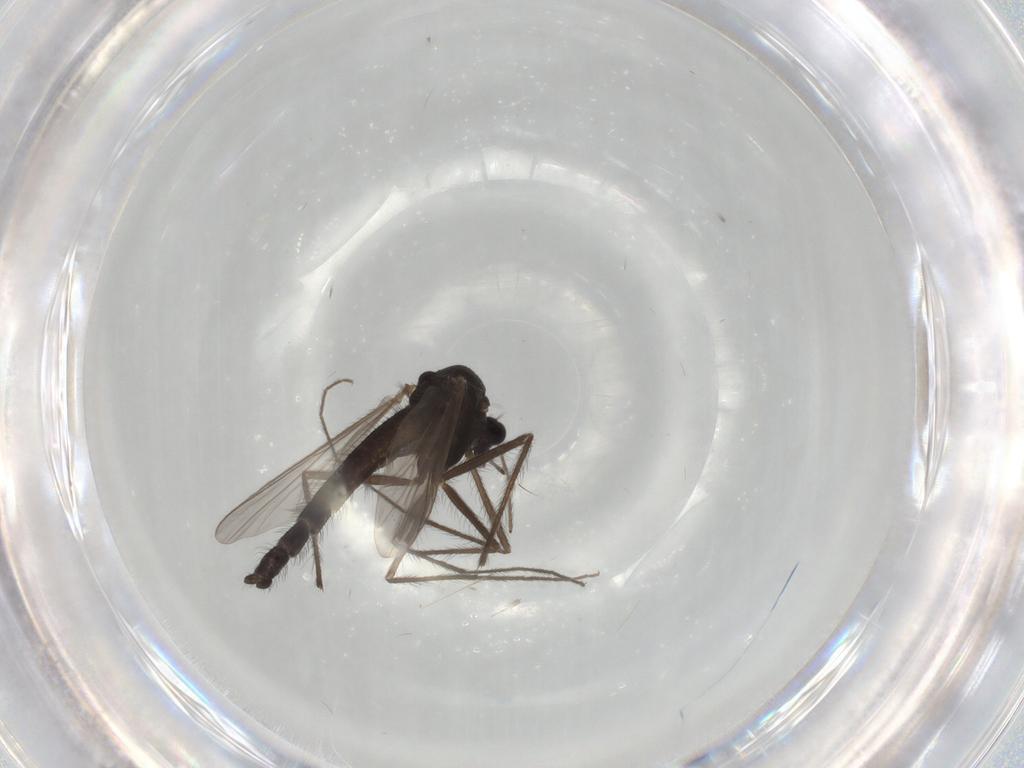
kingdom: Animalia
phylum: Arthropoda
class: Insecta
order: Diptera
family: Chironomidae
